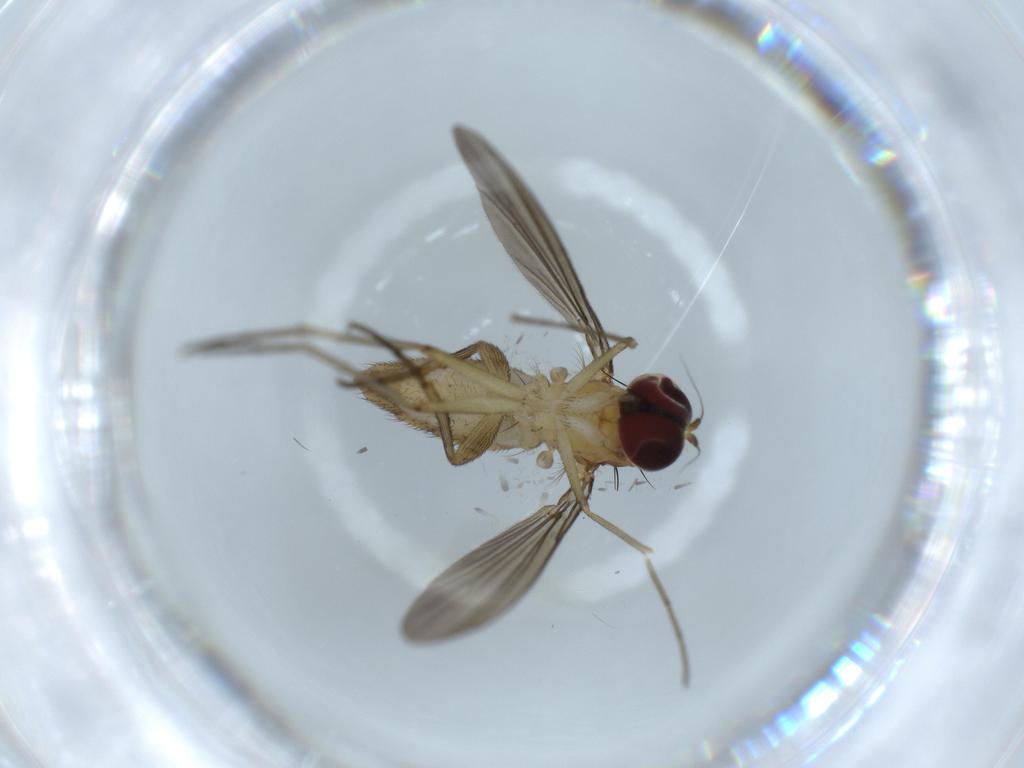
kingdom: Animalia
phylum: Arthropoda
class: Insecta
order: Diptera
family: Dolichopodidae
